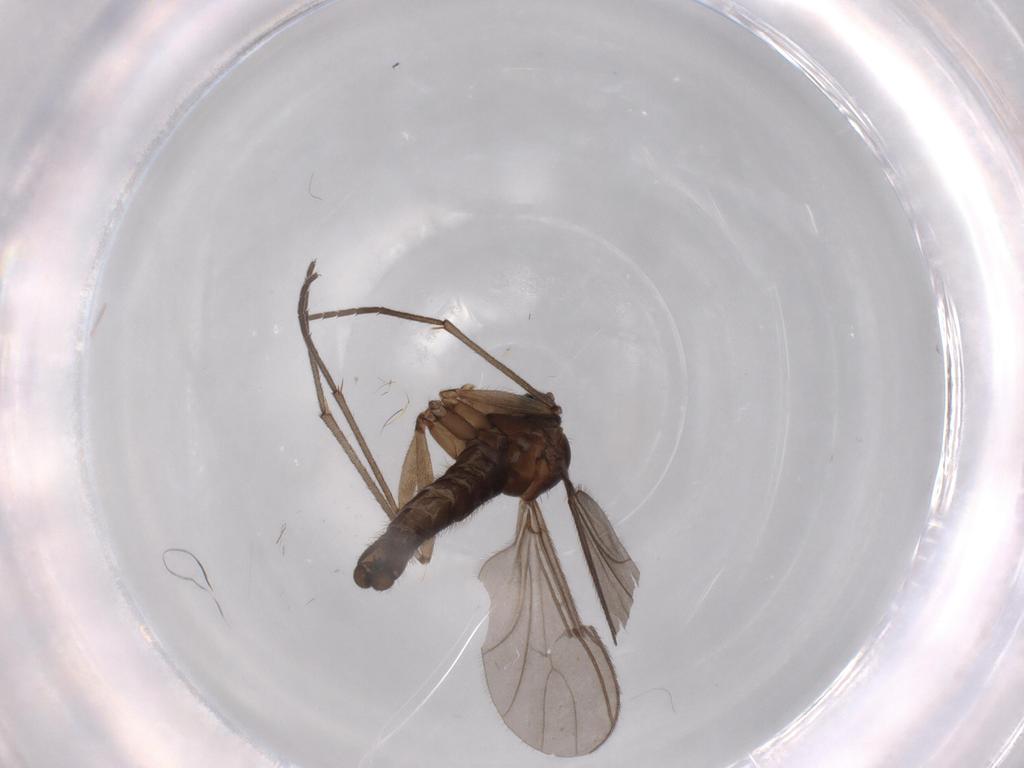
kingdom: Animalia
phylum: Arthropoda
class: Insecta
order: Diptera
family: Sciaridae
